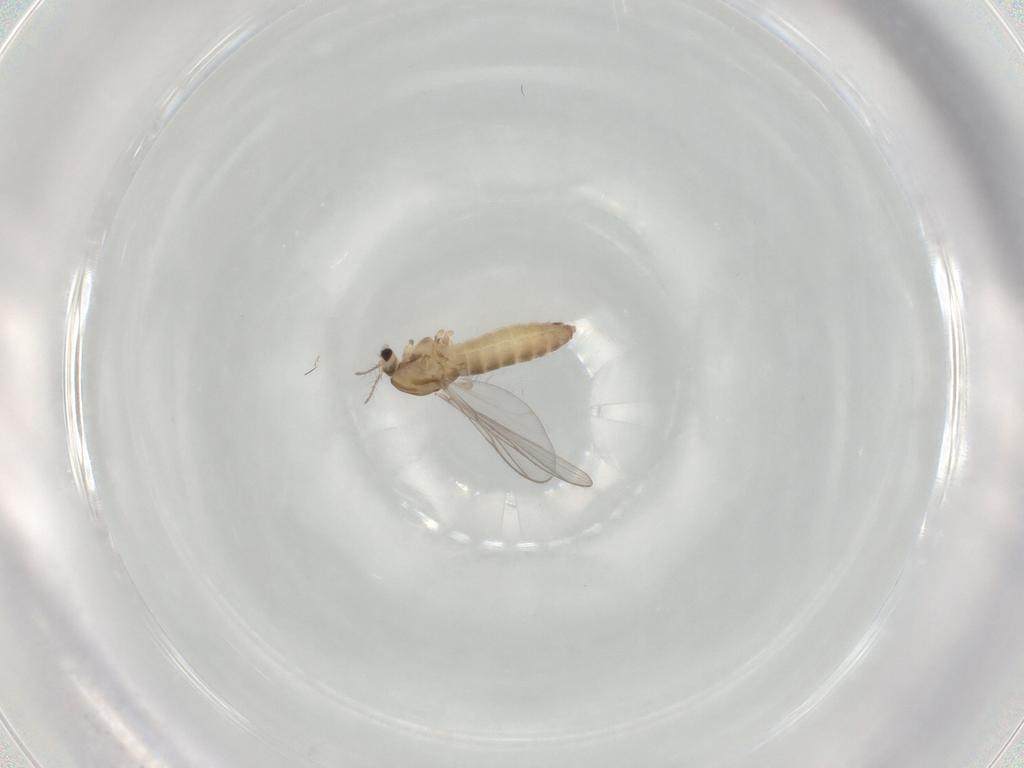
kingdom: Animalia
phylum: Arthropoda
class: Insecta
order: Diptera
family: Chironomidae
